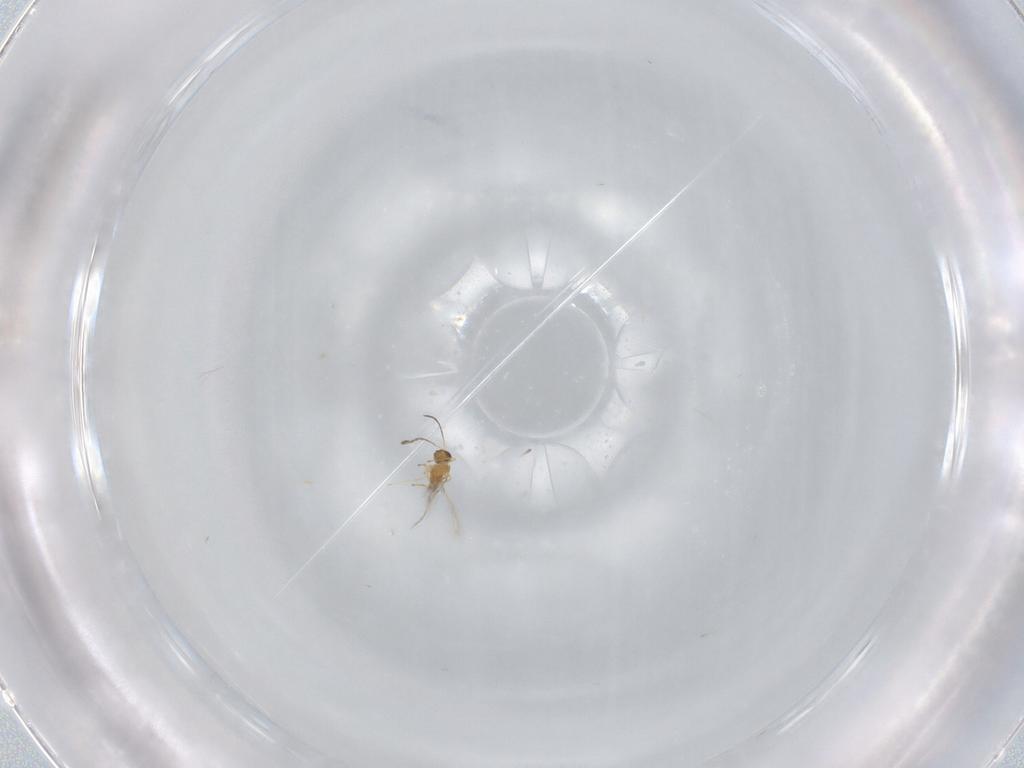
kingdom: Animalia
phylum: Arthropoda
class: Insecta
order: Hymenoptera
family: Mymaridae
